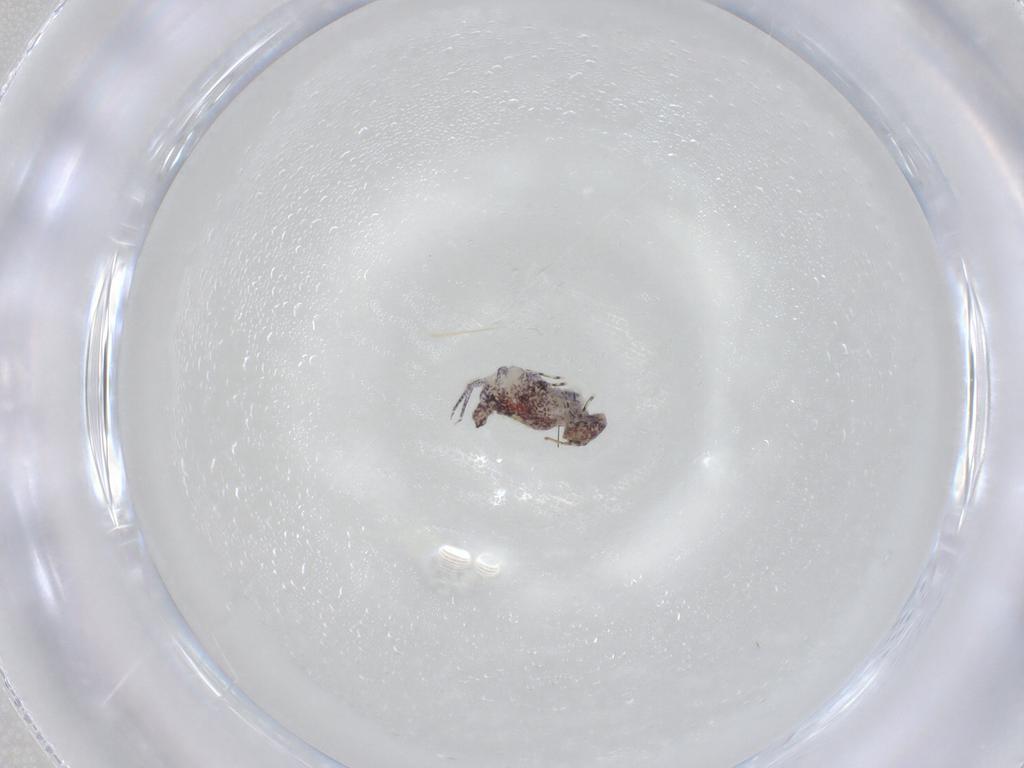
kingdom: Animalia
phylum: Arthropoda
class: Collembola
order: Symphypleona
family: Bourletiellidae
